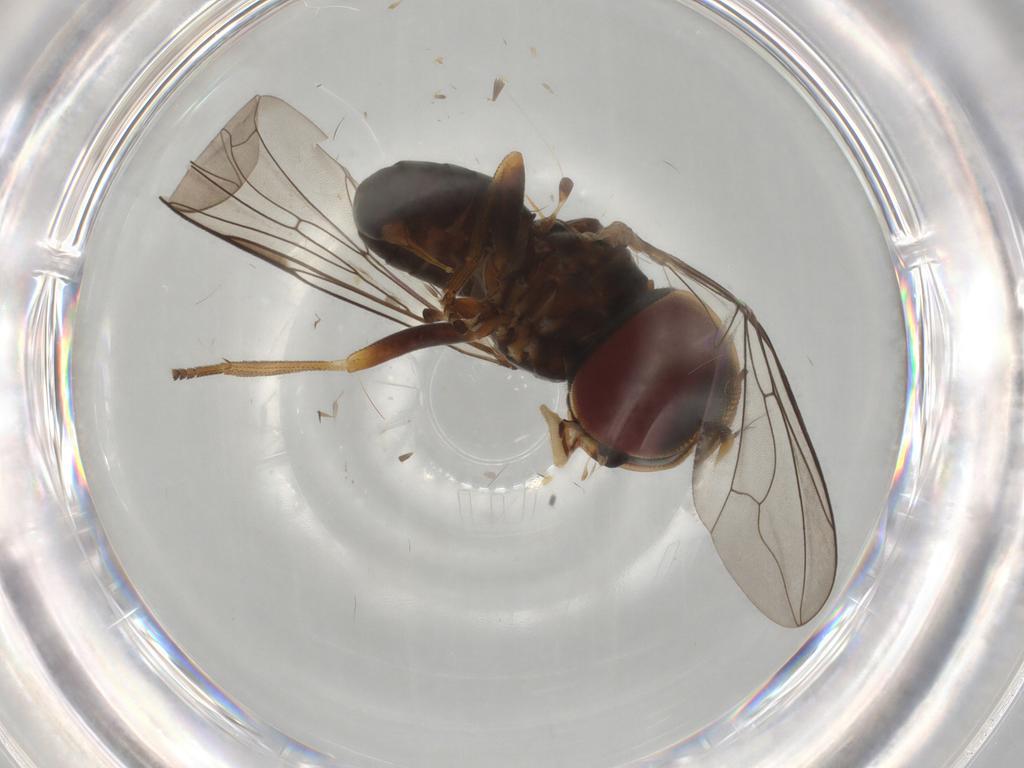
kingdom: Animalia
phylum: Arthropoda
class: Insecta
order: Diptera
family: Pipunculidae
